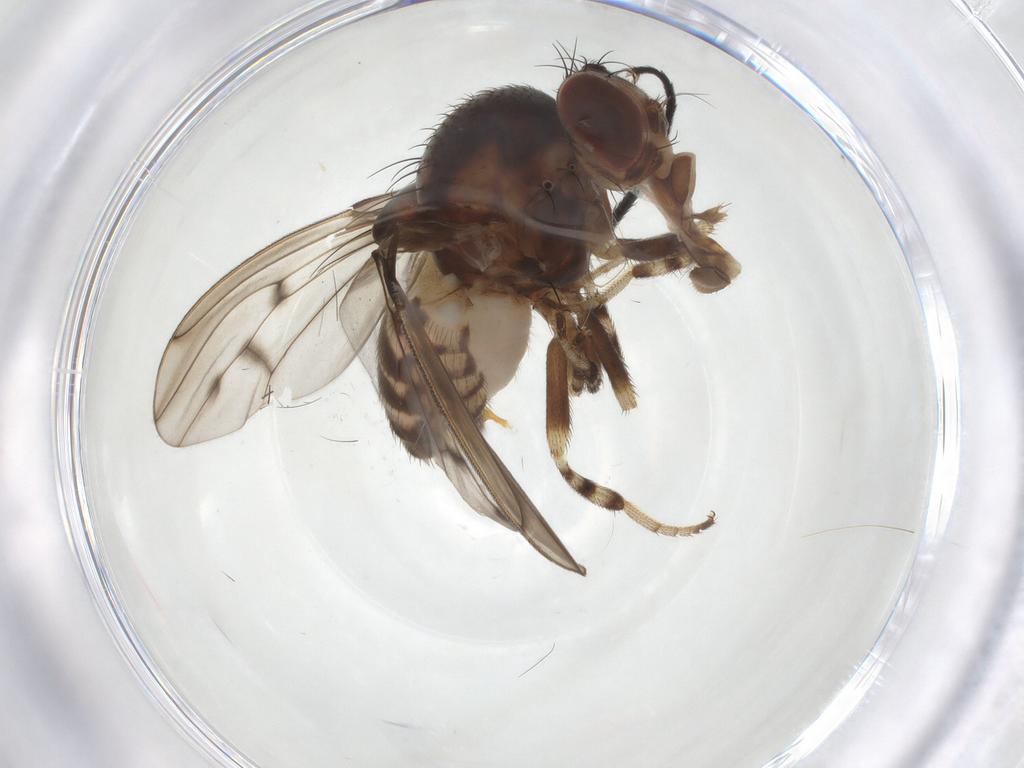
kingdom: Animalia
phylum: Arthropoda
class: Insecta
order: Diptera
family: Drosophilidae
